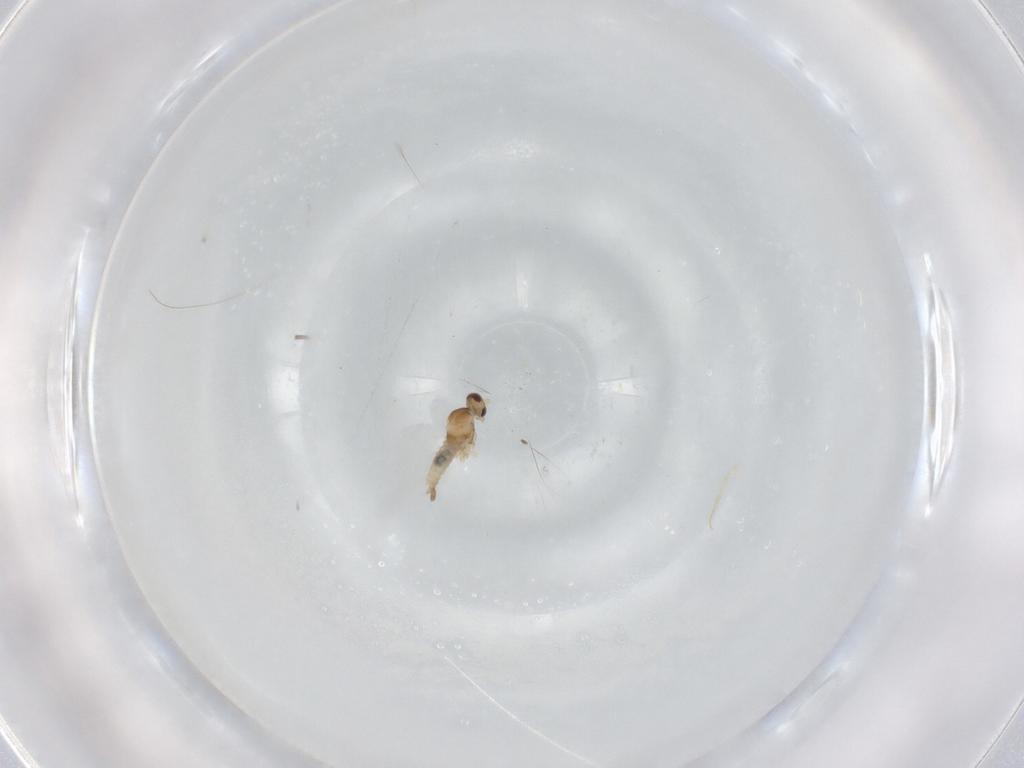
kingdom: Animalia
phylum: Arthropoda
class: Insecta
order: Diptera
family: Cecidomyiidae
